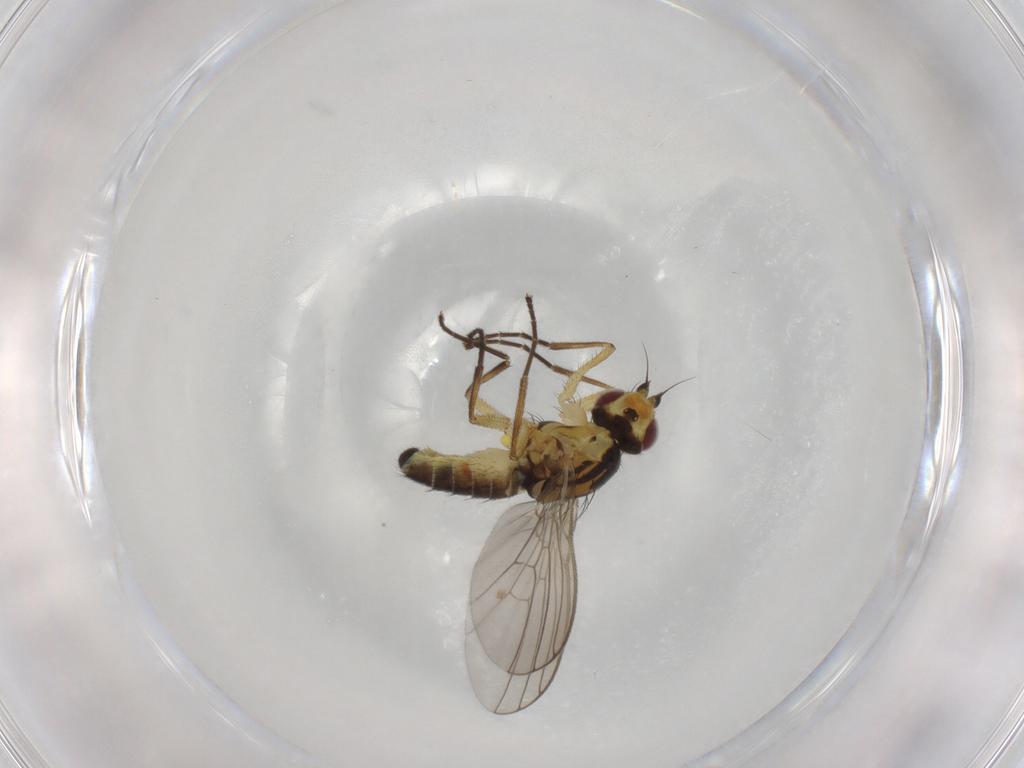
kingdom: Animalia
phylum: Arthropoda
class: Insecta
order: Diptera
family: Agromyzidae
